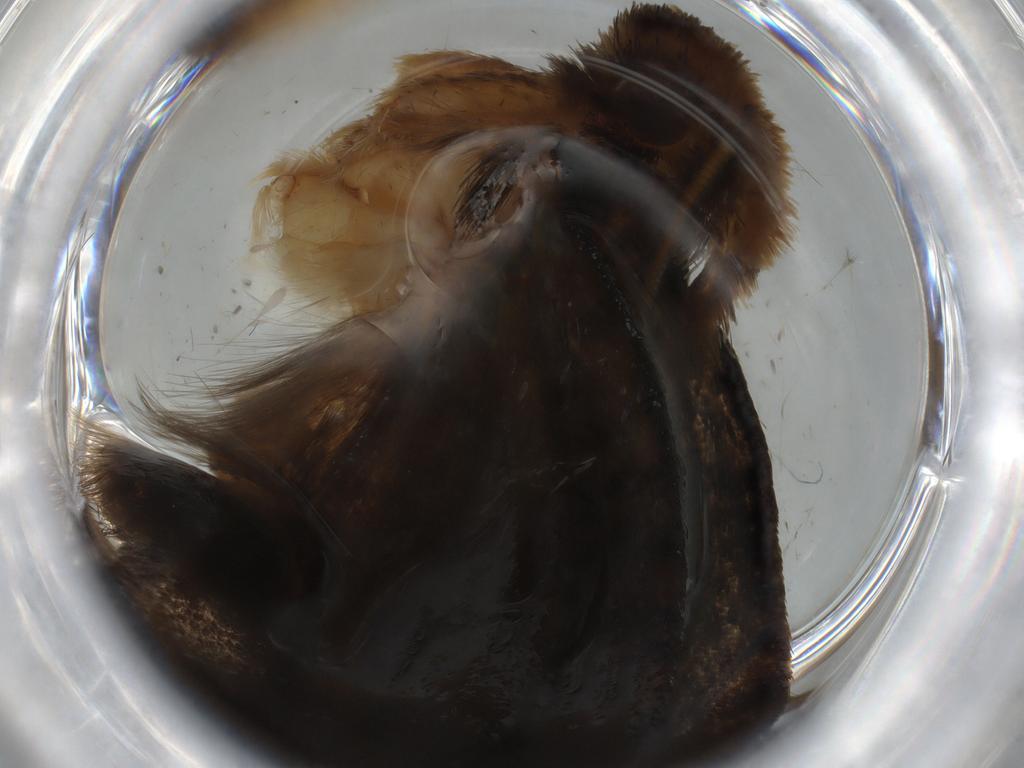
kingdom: Animalia
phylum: Arthropoda
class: Insecta
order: Lepidoptera
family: Tineidae
